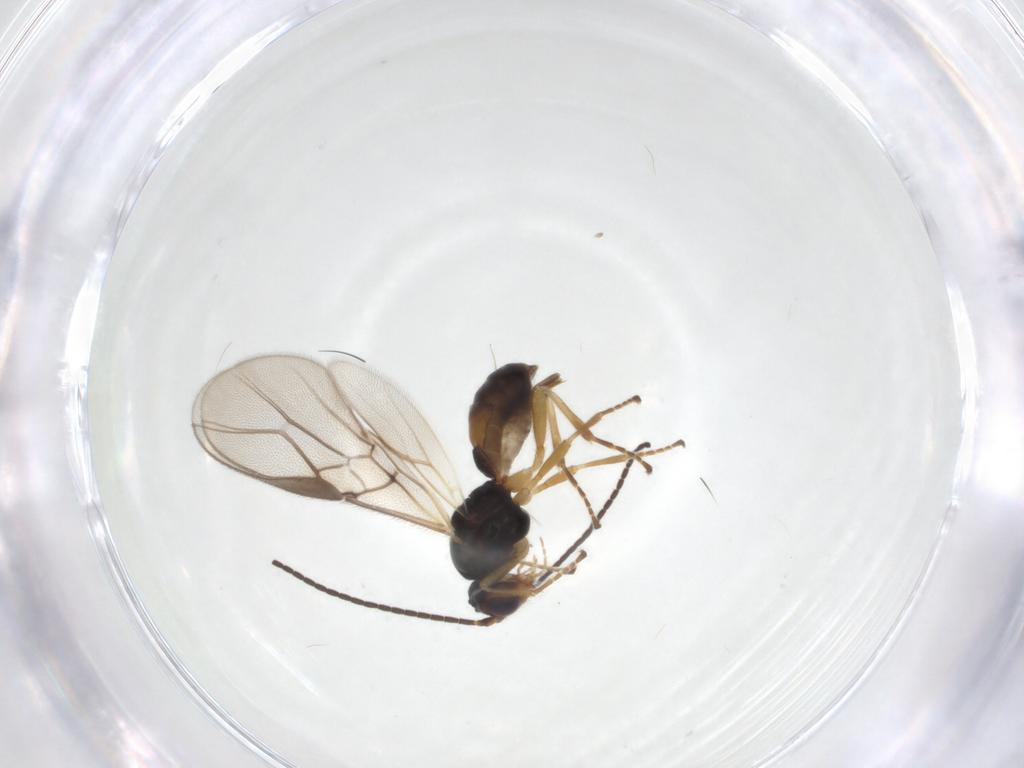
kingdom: Animalia
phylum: Arthropoda
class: Insecta
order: Hymenoptera
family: Braconidae
